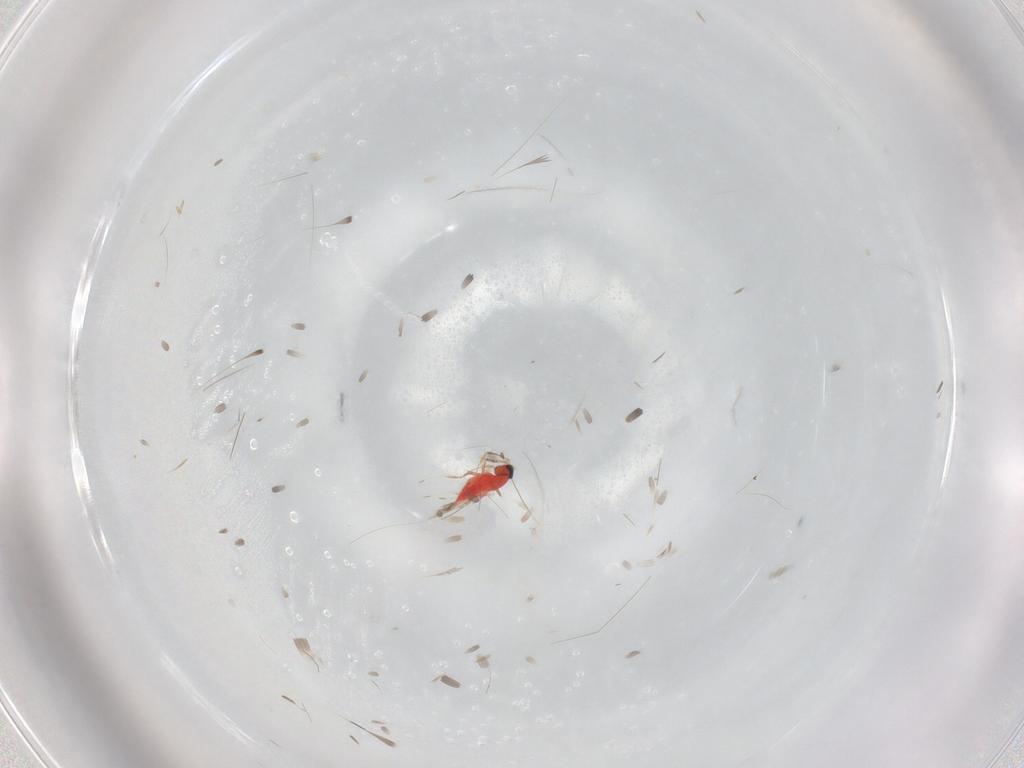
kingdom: Animalia
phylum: Arthropoda
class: Insecta
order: Hymenoptera
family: Trichogrammatidae
